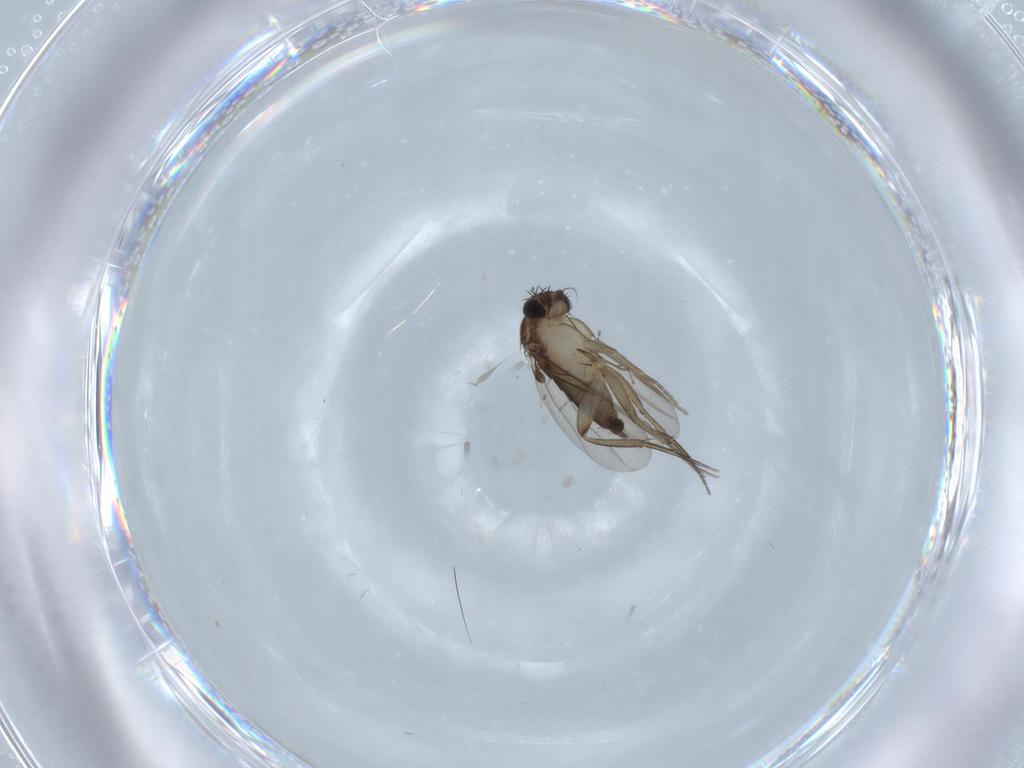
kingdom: Animalia
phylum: Arthropoda
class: Insecta
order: Diptera
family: Phoridae
